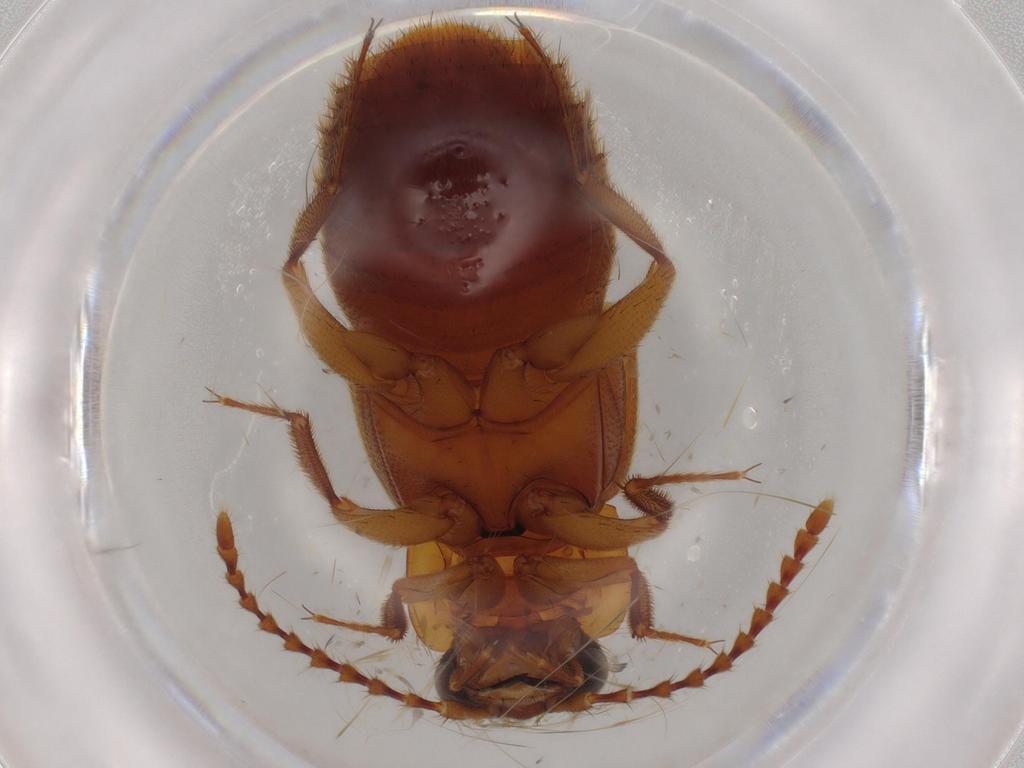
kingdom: Animalia
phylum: Arthropoda
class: Insecta
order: Coleoptera
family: Staphylinidae
